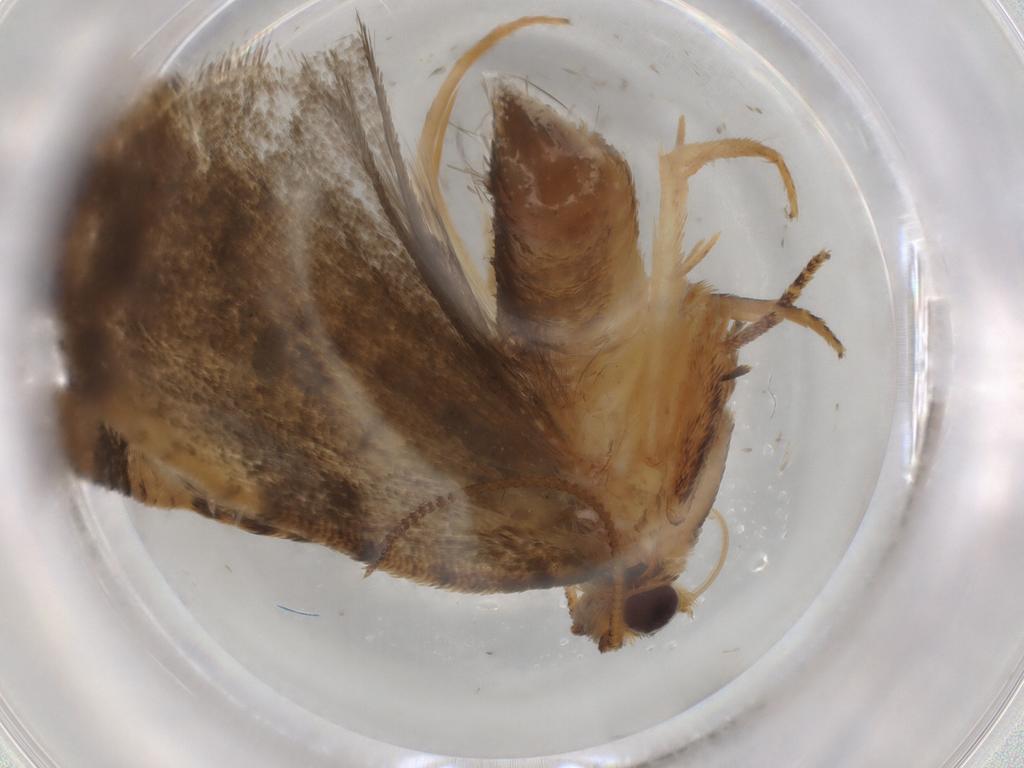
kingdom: Animalia
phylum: Arthropoda
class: Insecta
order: Lepidoptera
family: Tortricidae
